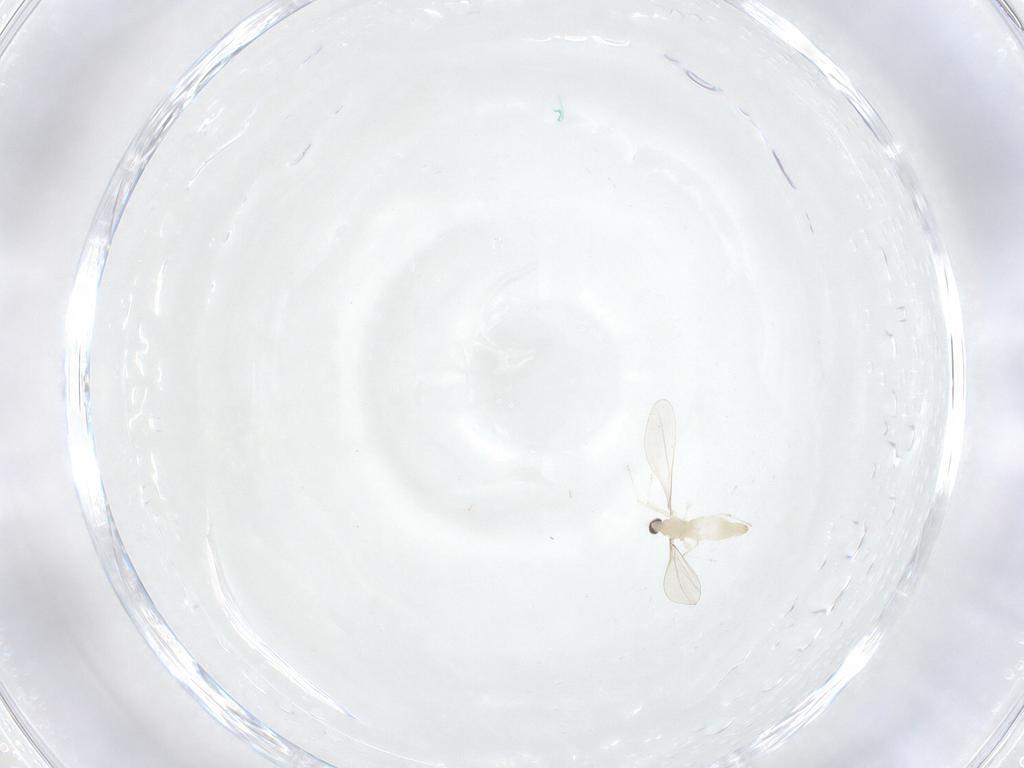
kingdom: Animalia
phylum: Arthropoda
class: Insecta
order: Diptera
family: Cecidomyiidae
